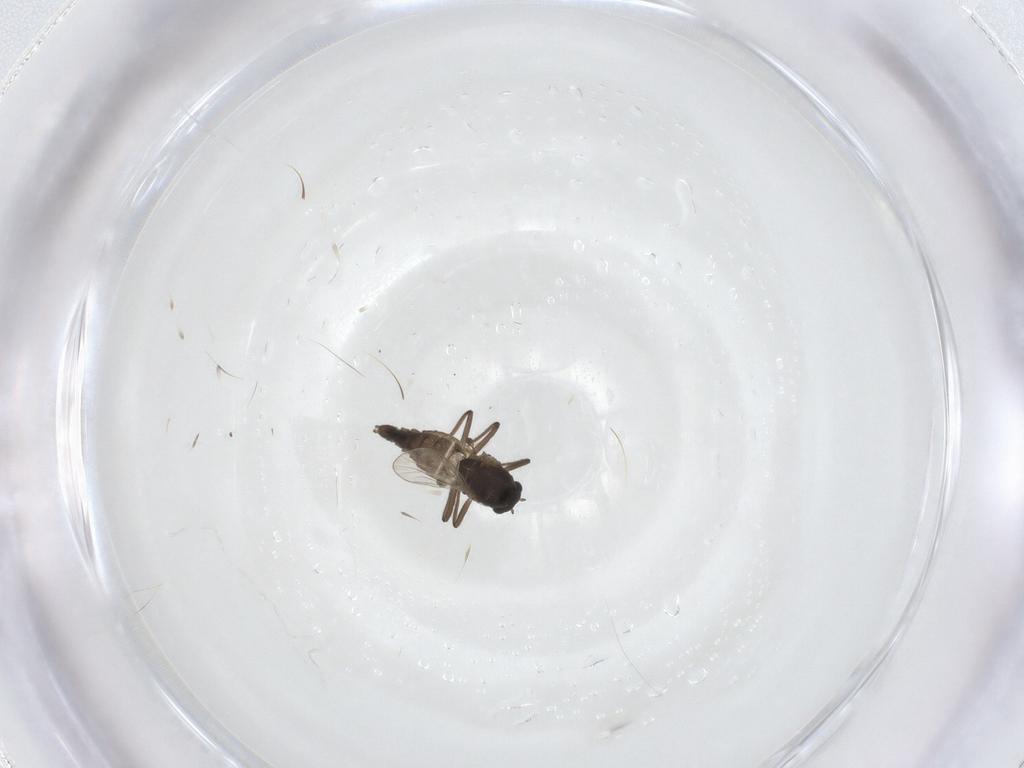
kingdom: Animalia
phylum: Arthropoda
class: Insecta
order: Diptera
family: Chironomidae
